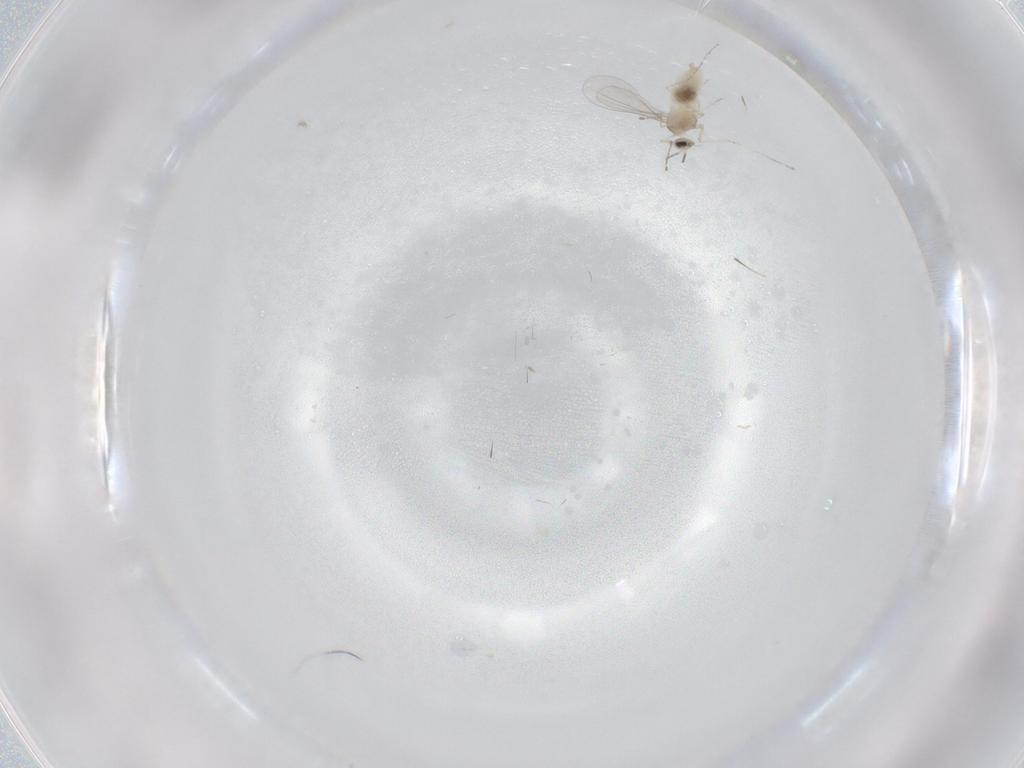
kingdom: Animalia
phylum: Arthropoda
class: Insecta
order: Diptera
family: Cecidomyiidae
